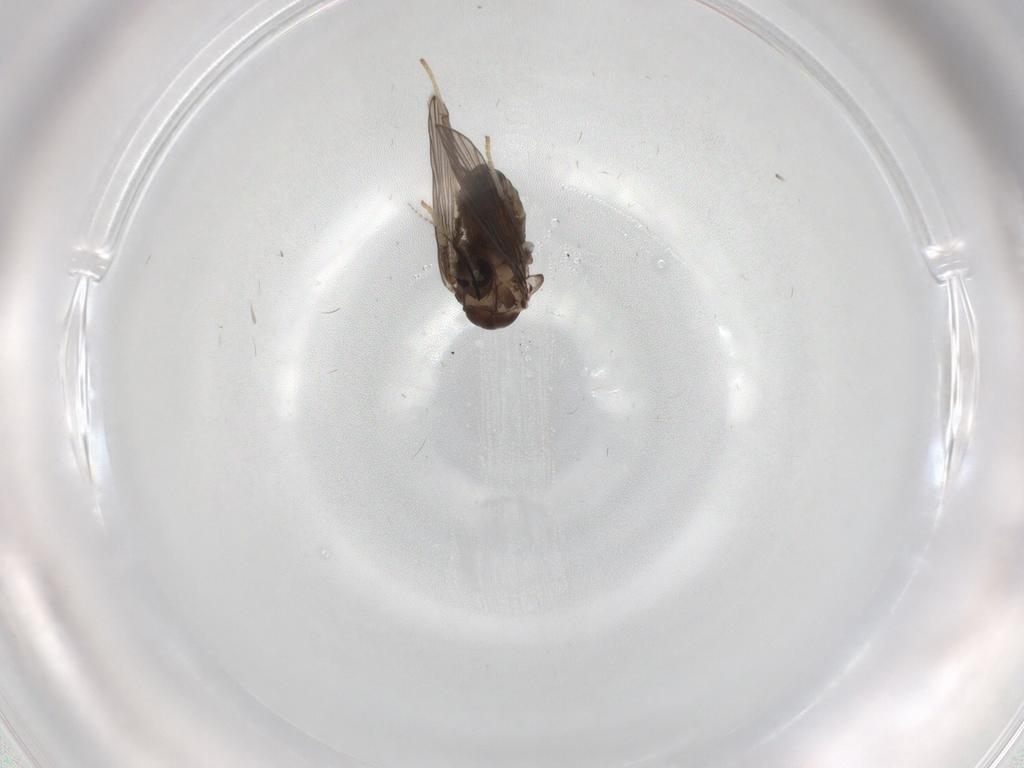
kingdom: Animalia
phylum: Arthropoda
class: Insecta
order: Diptera
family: Psychodidae
